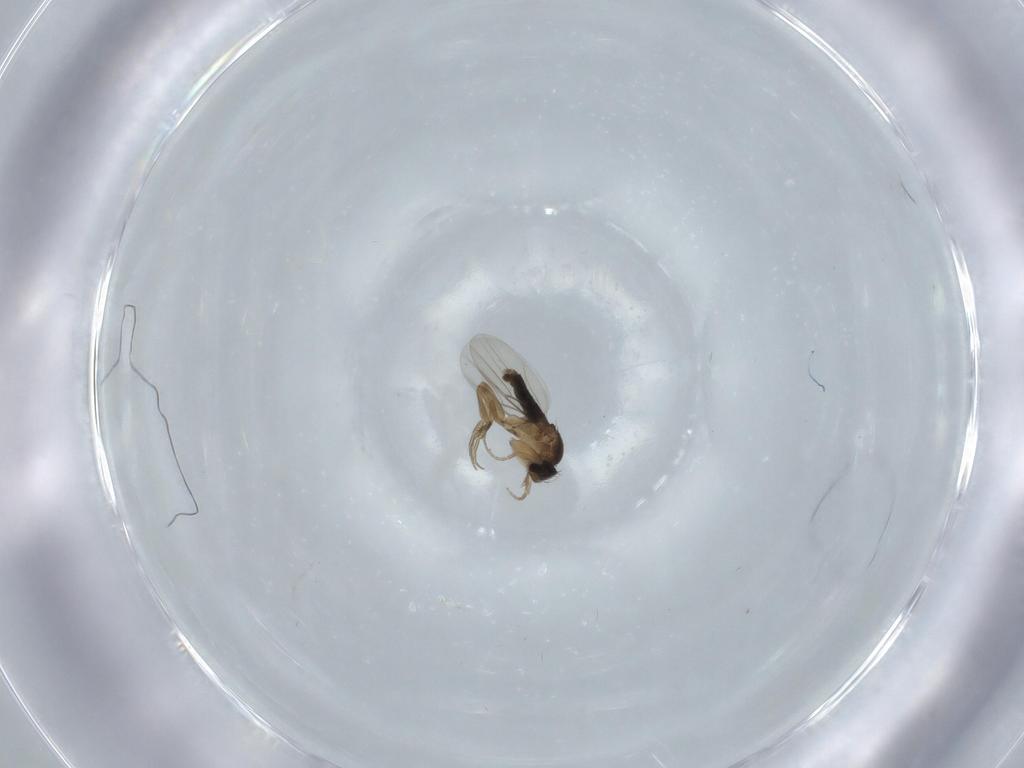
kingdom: Animalia
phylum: Arthropoda
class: Insecta
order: Diptera
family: Phoridae
